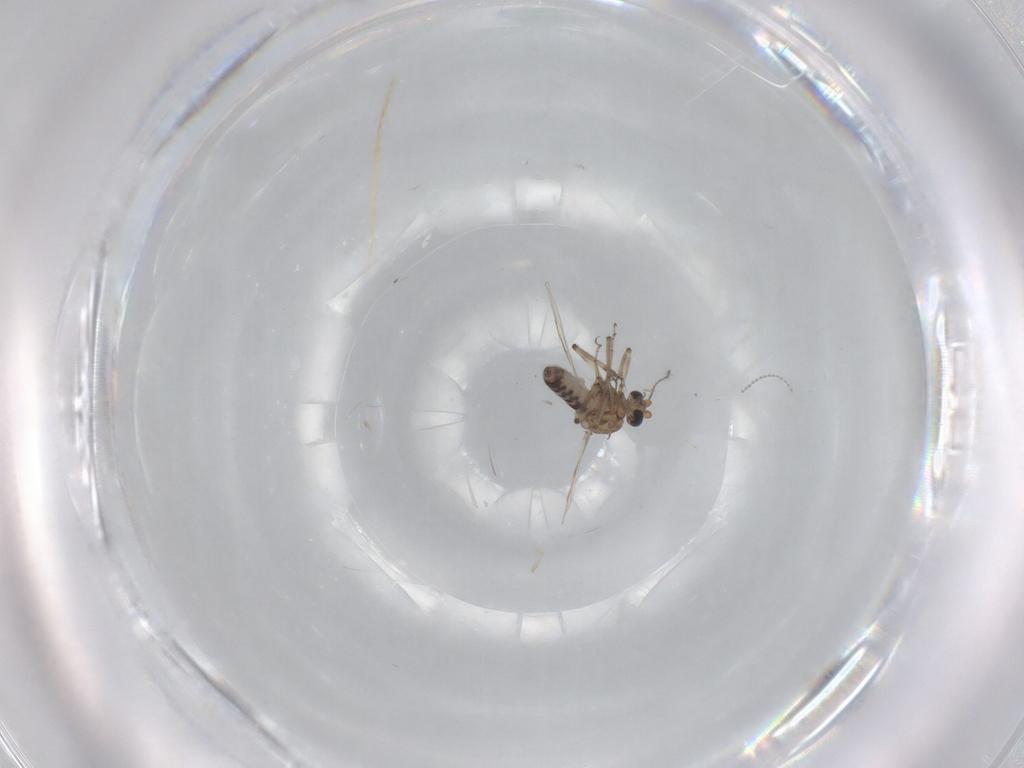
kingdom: Animalia
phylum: Arthropoda
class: Insecta
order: Diptera
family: Ceratopogonidae
